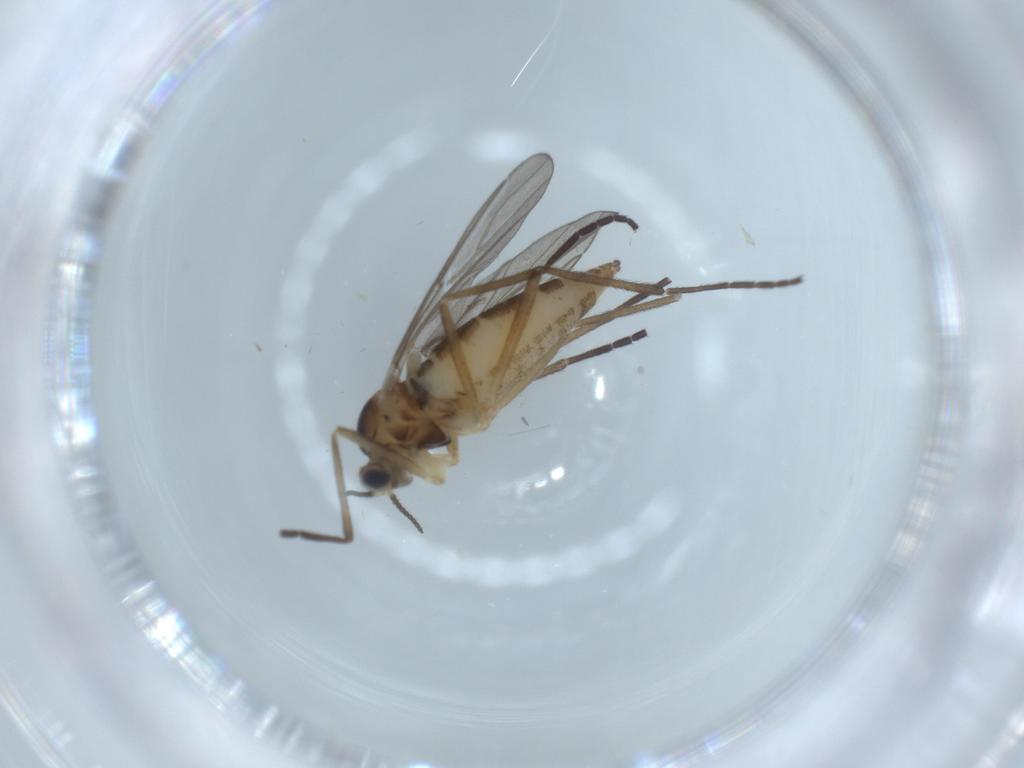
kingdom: Animalia
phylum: Arthropoda
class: Insecta
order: Diptera
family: Cecidomyiidae
